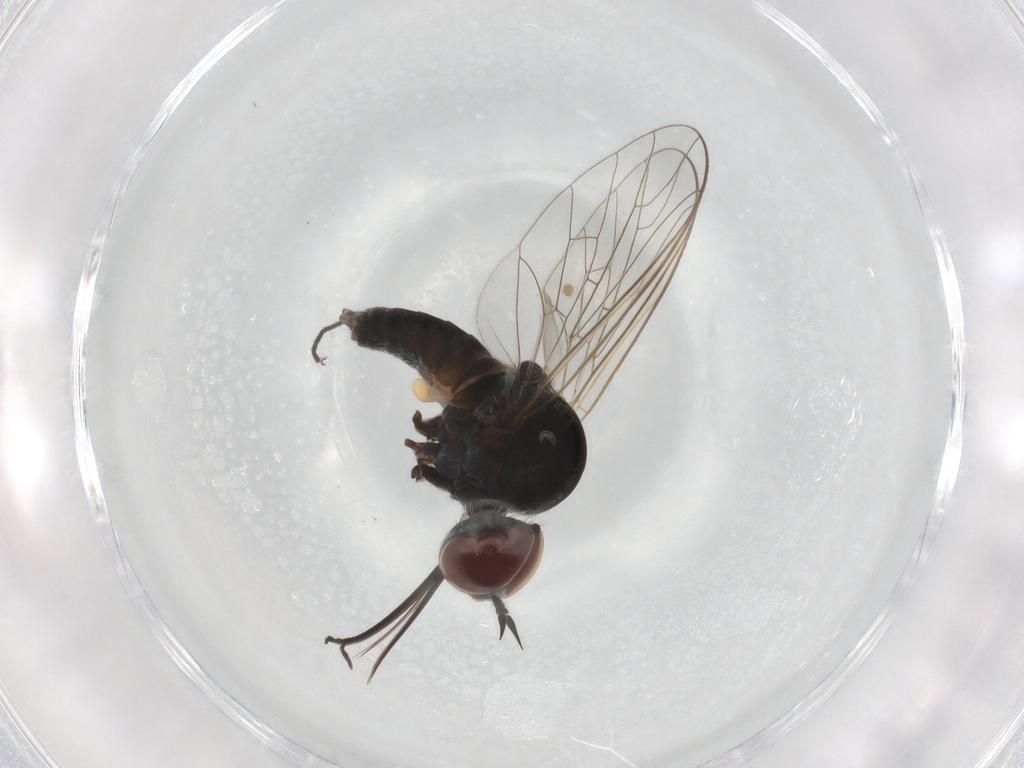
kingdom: Animalia
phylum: Arthropoda
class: Insecta
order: Diptera
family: Bombyliidae
